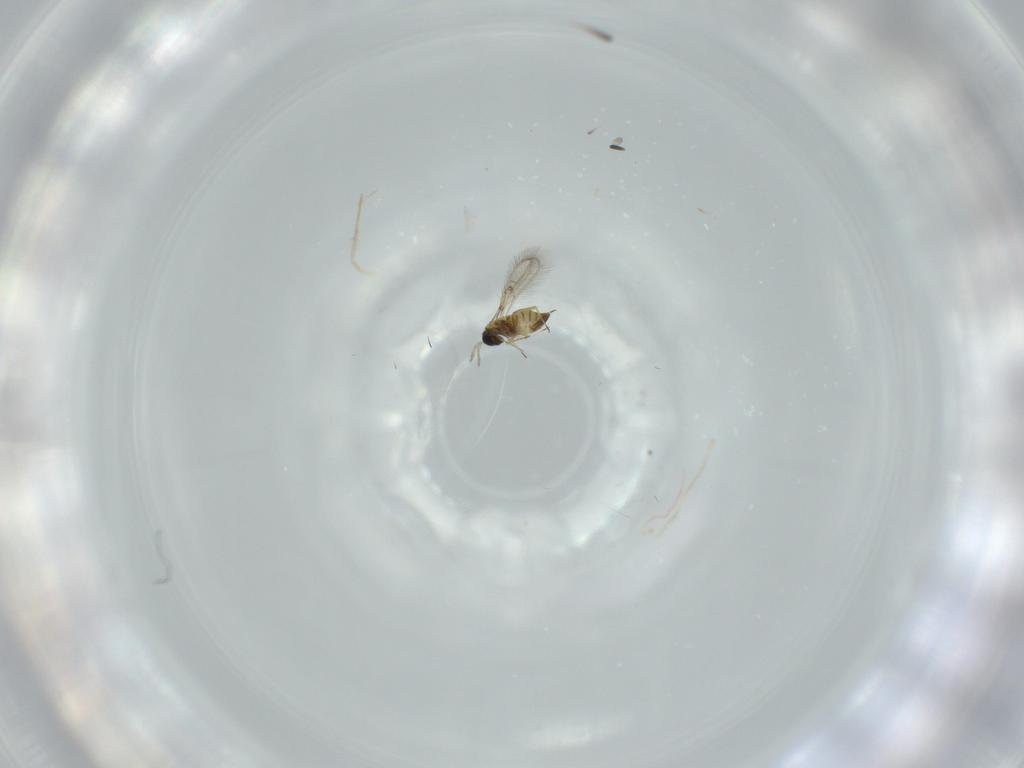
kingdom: Animalia
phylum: Arthropoda
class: Insecta
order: Hymenoptera
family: Trichogrammatidae
